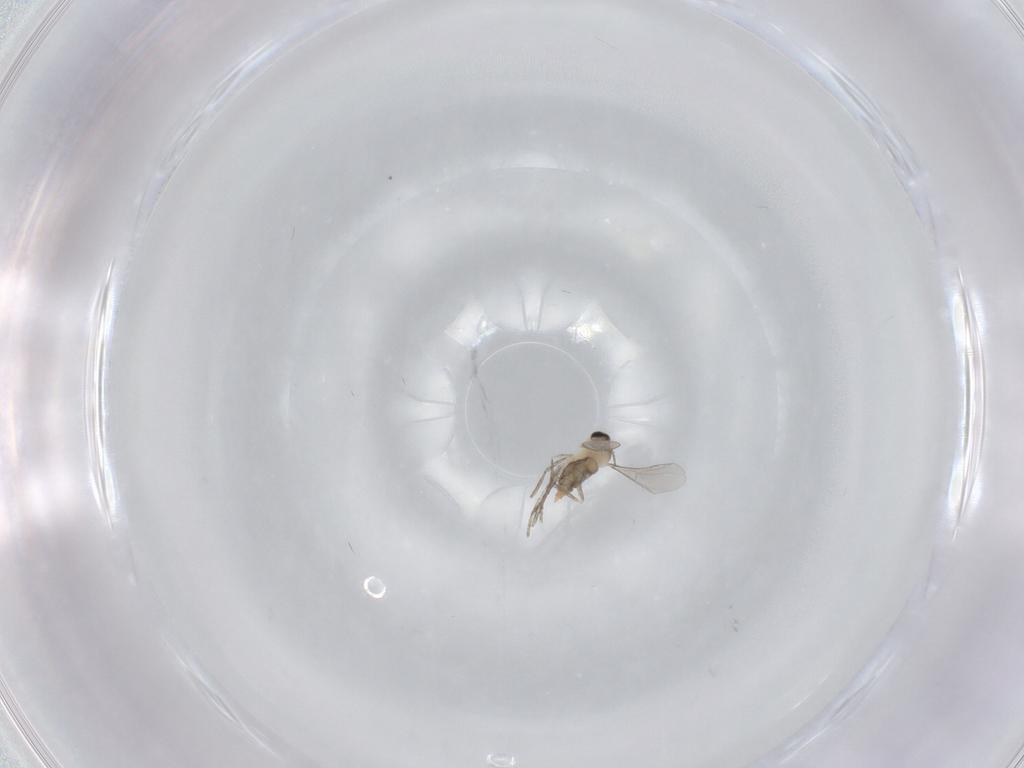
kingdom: Animalia
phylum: Arthropoda
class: Insecta
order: Diptera
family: Cecidomyiidae
